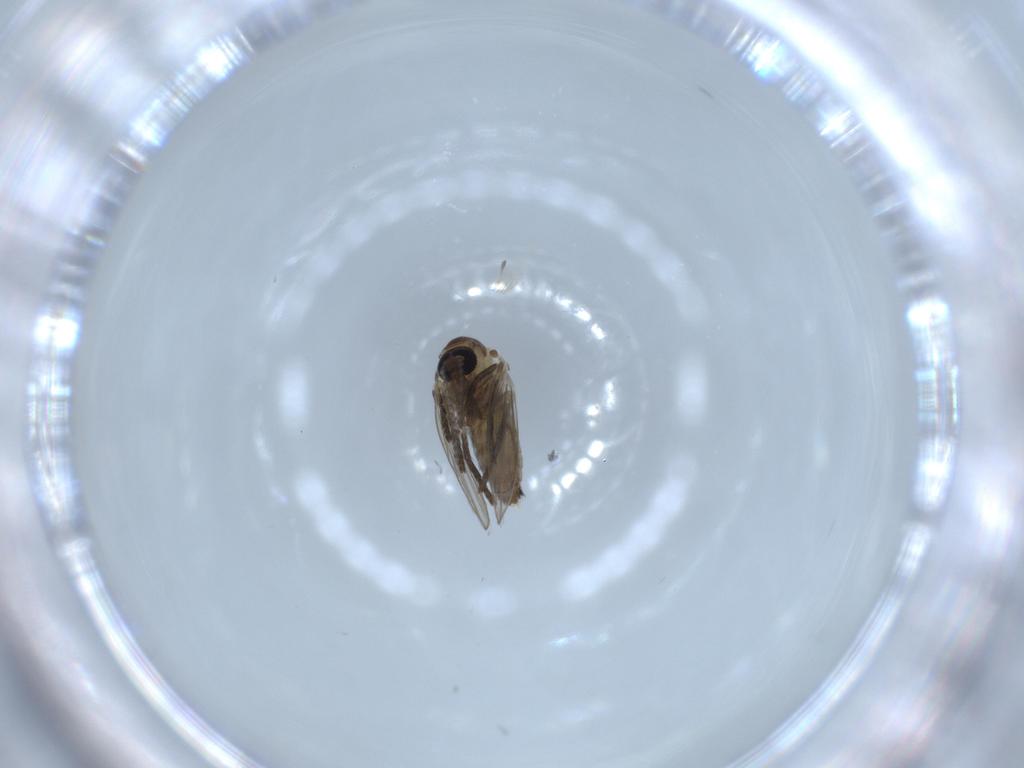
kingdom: Animalia
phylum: Arthropoda
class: Insecta
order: Diptera
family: Psychodidae
